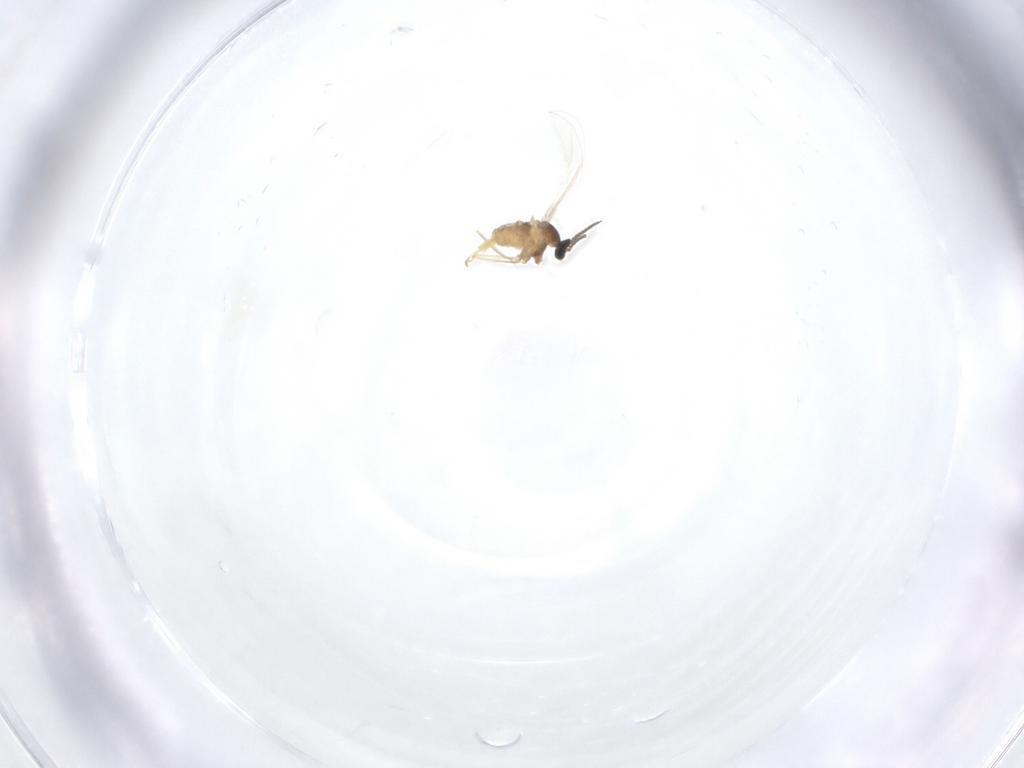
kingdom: Animalia
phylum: Arthropoda
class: Insecta
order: Diptera
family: Cecidomyiidae
